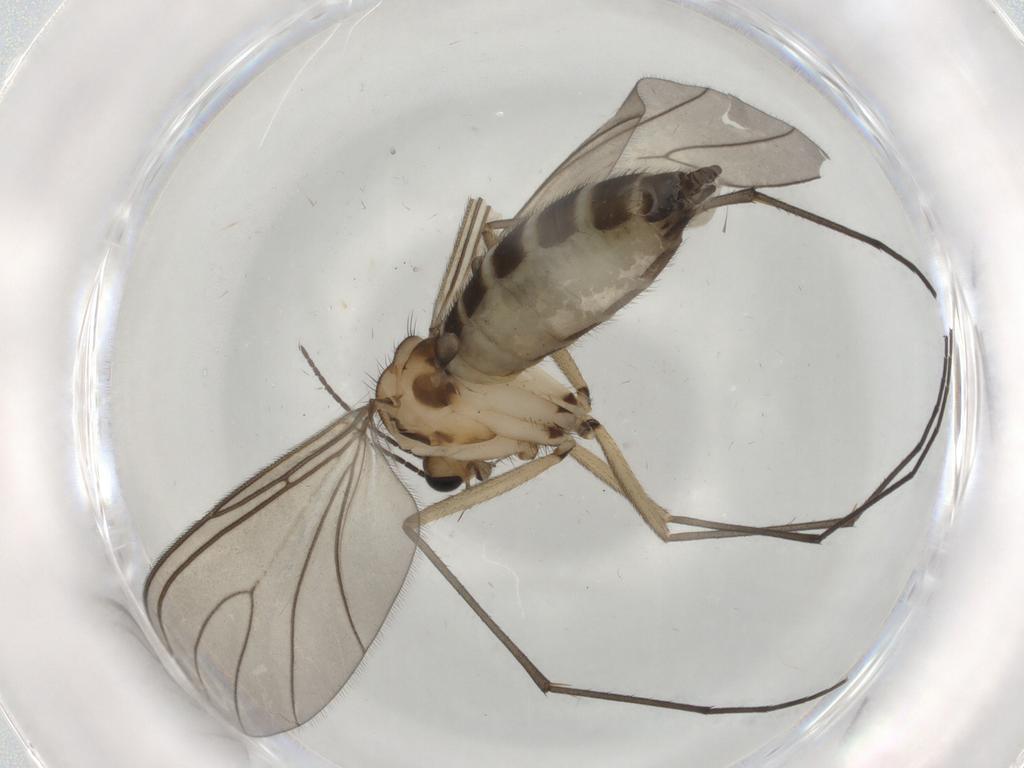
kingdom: Animalia
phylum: Arthropoda
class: Insecta
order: Diptera
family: Sciaridae
